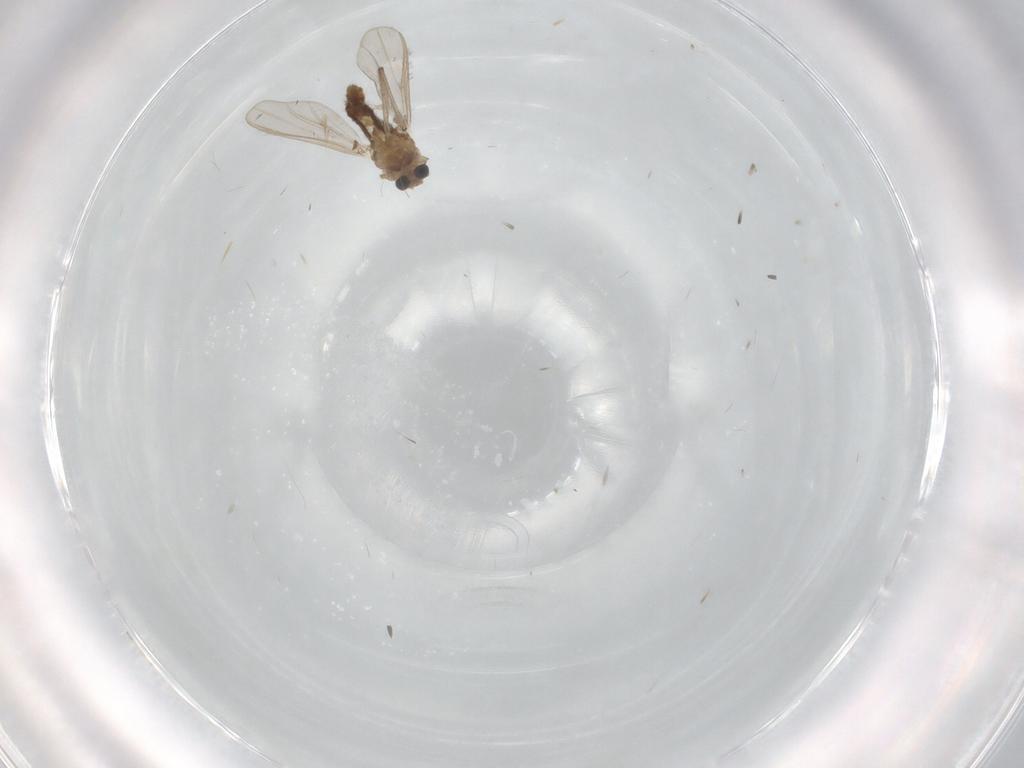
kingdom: Animalia
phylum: Arthropoda
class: Insecta
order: Diptera
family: Chironomidae
